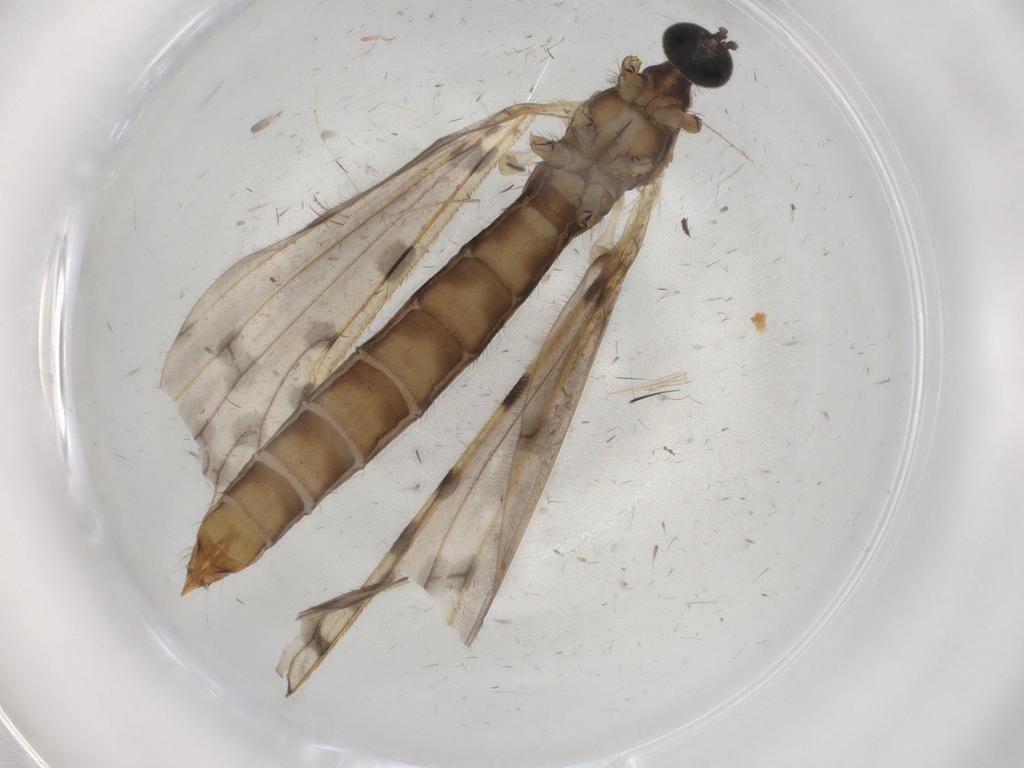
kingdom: Animalia
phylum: Arthropoda
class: Insecta
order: Diptera
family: Ceratopogonidae
